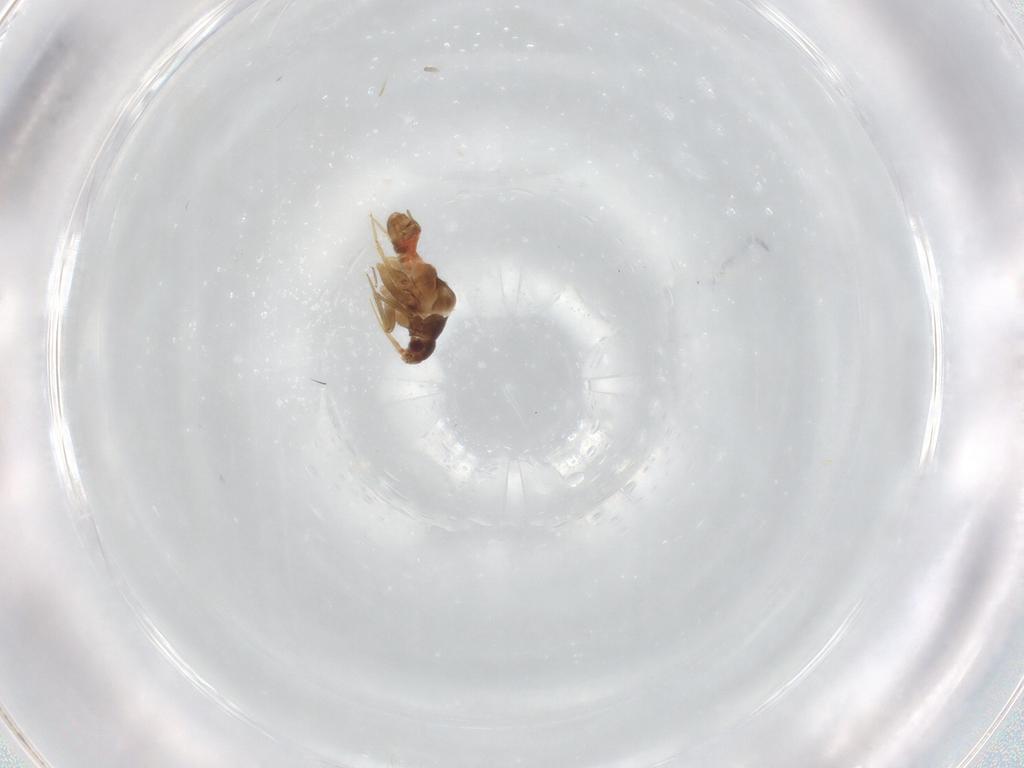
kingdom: Animalia
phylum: Arthropoda
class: Insecta
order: Hemiptera
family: Ceratocombidae
